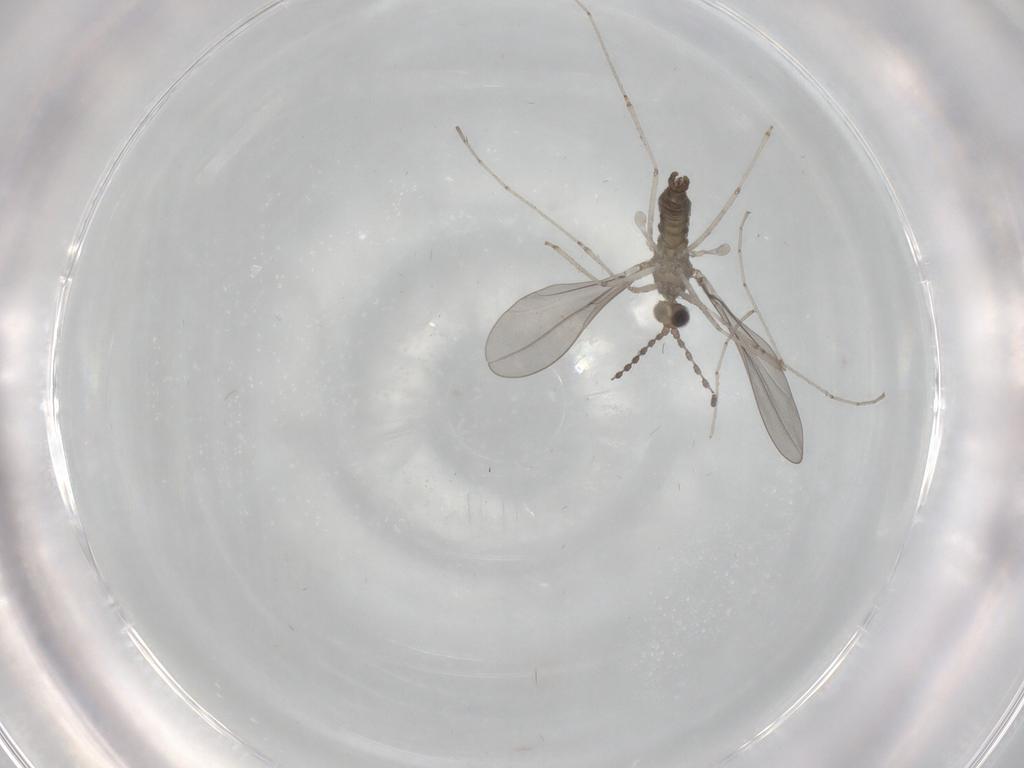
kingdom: Animalia
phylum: Arthropoda
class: Insecta
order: Diptera
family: Cecidomyiidae
